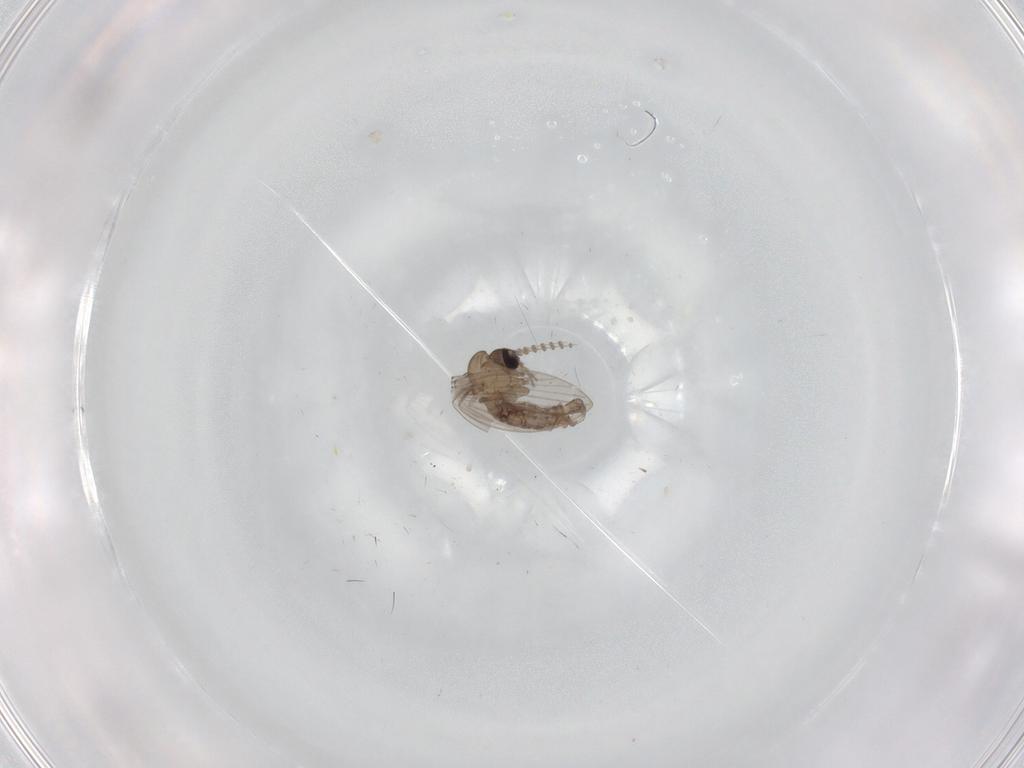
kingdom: Animalia
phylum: Arthropoda
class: Insecta
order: Diptera
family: Psychodidae
